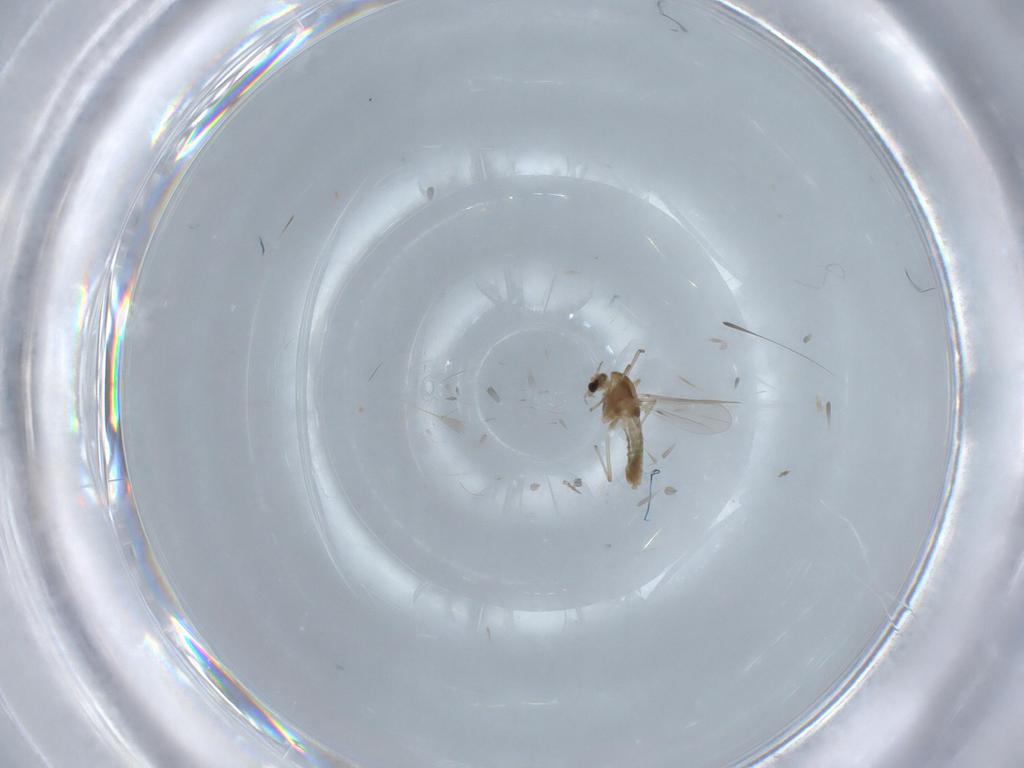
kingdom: Animalia
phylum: Arthropoda
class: Insecta
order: Diptera
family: Chironomidae
